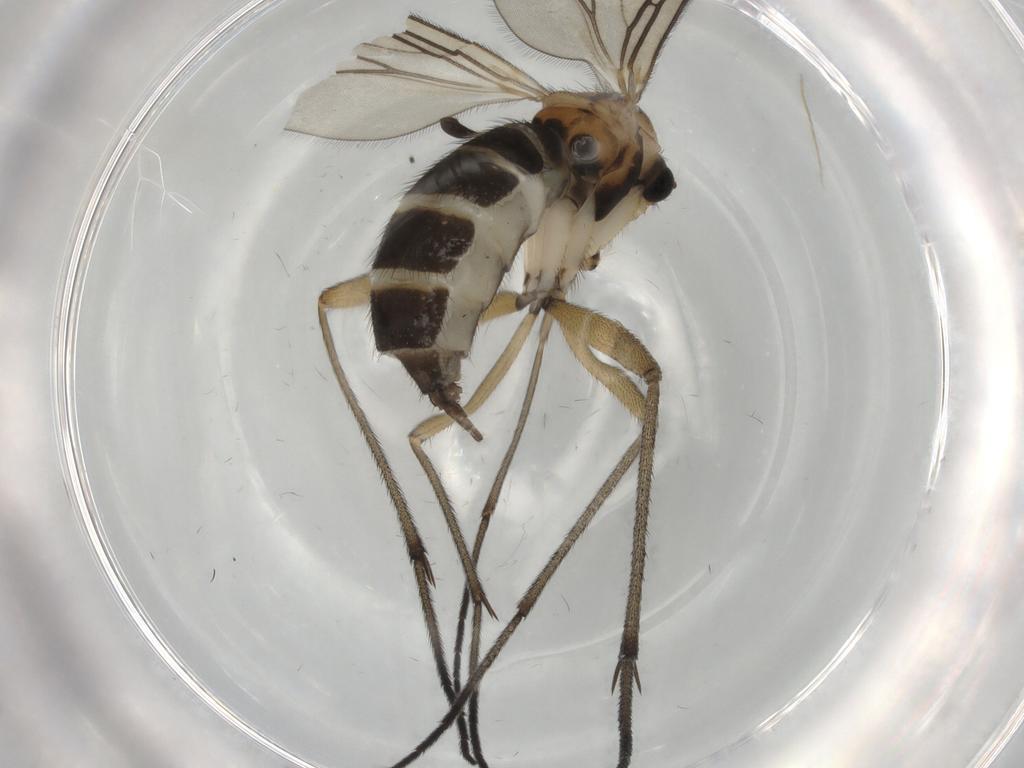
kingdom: Animalia
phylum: Arthropoda
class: Insecta
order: Diptera
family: Sciaridae
